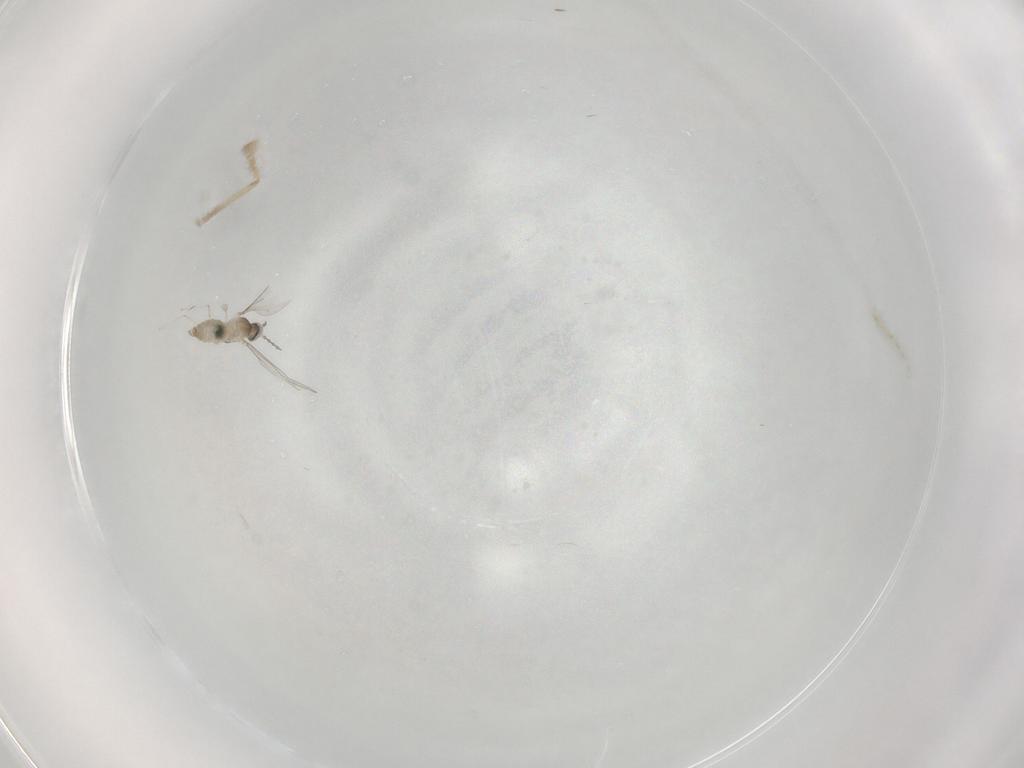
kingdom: Animalia
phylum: Arthropoda
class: Insecta
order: Diptera
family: Cecidomyiidae
